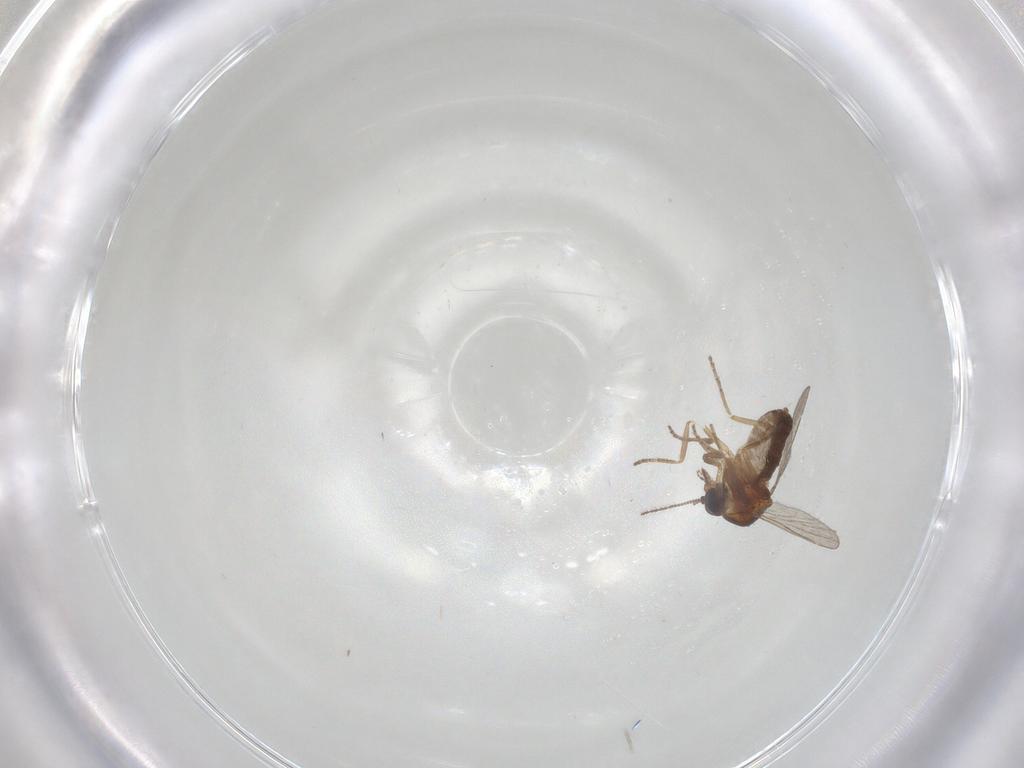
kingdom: Animalia
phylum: Arthropoda
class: Insecta
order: Diptera
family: Ceratopogonidae
